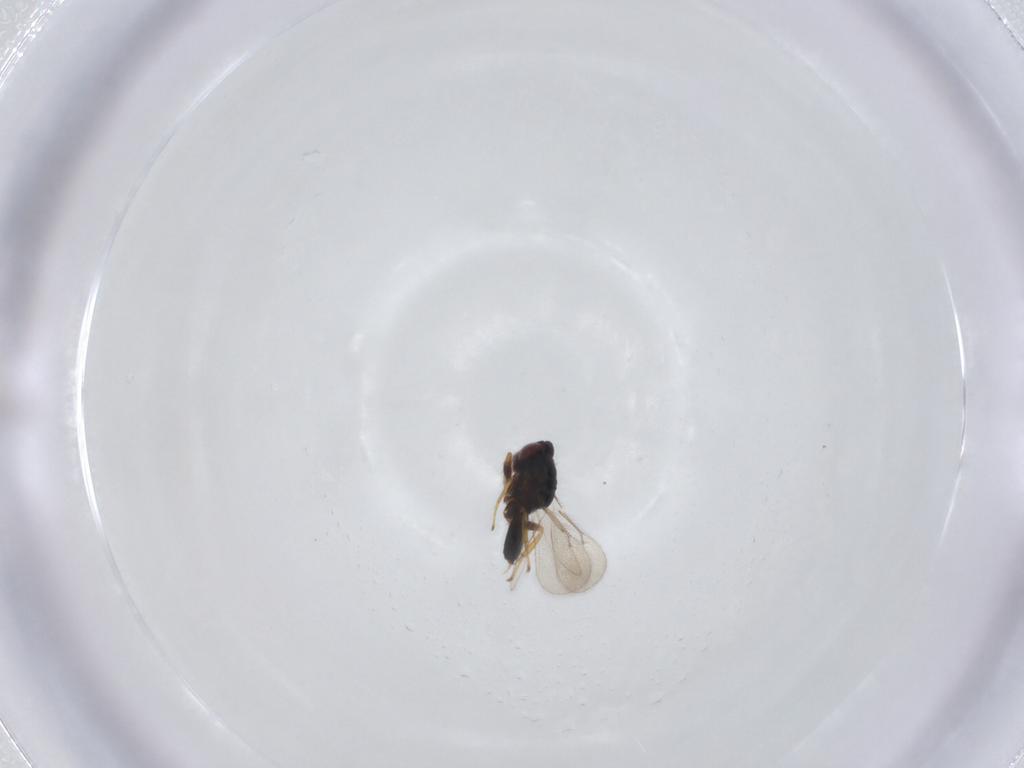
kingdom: Animalia
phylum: Arthropoda
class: Insecta
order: Hymenoptera
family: Eulophidae
